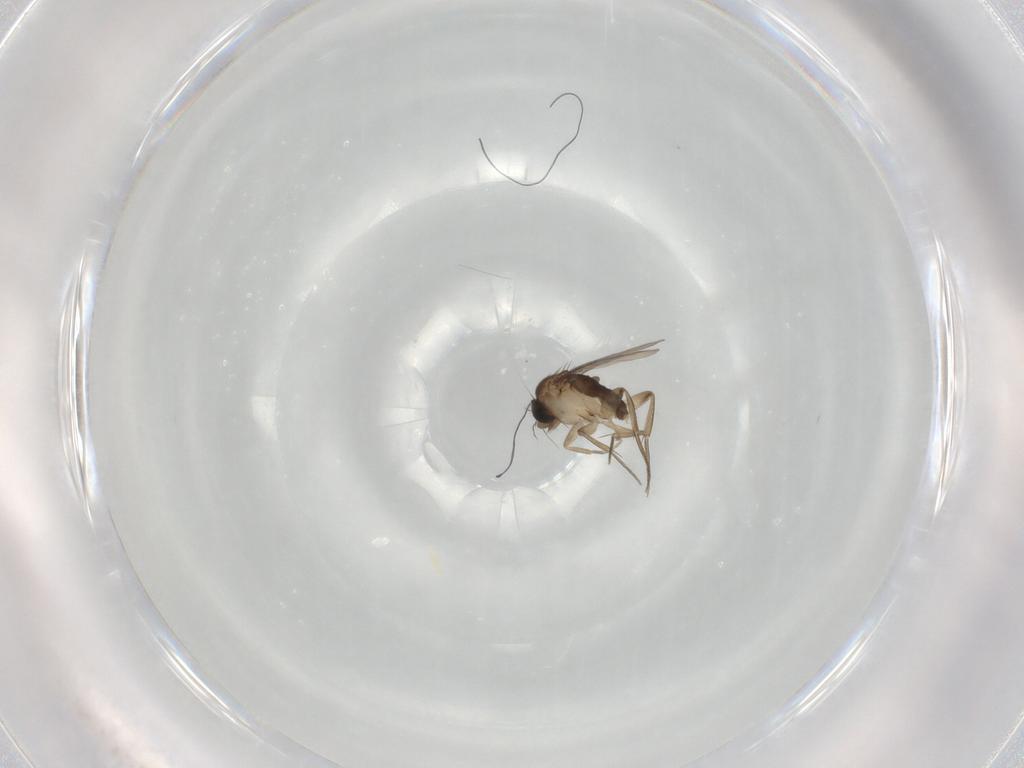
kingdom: Animalia
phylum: Arthropoda
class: Insecta
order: Diptera
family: Phoridae
